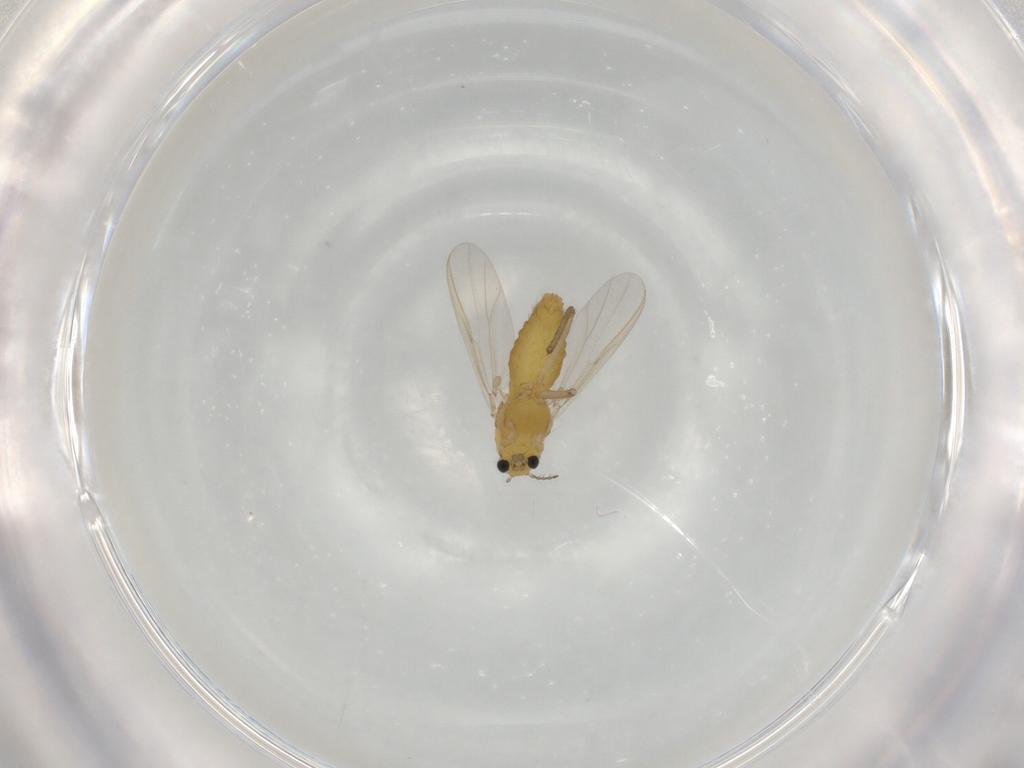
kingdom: Animalia
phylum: Arthropoda
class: Insecta
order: Diptera
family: Chironomidae
